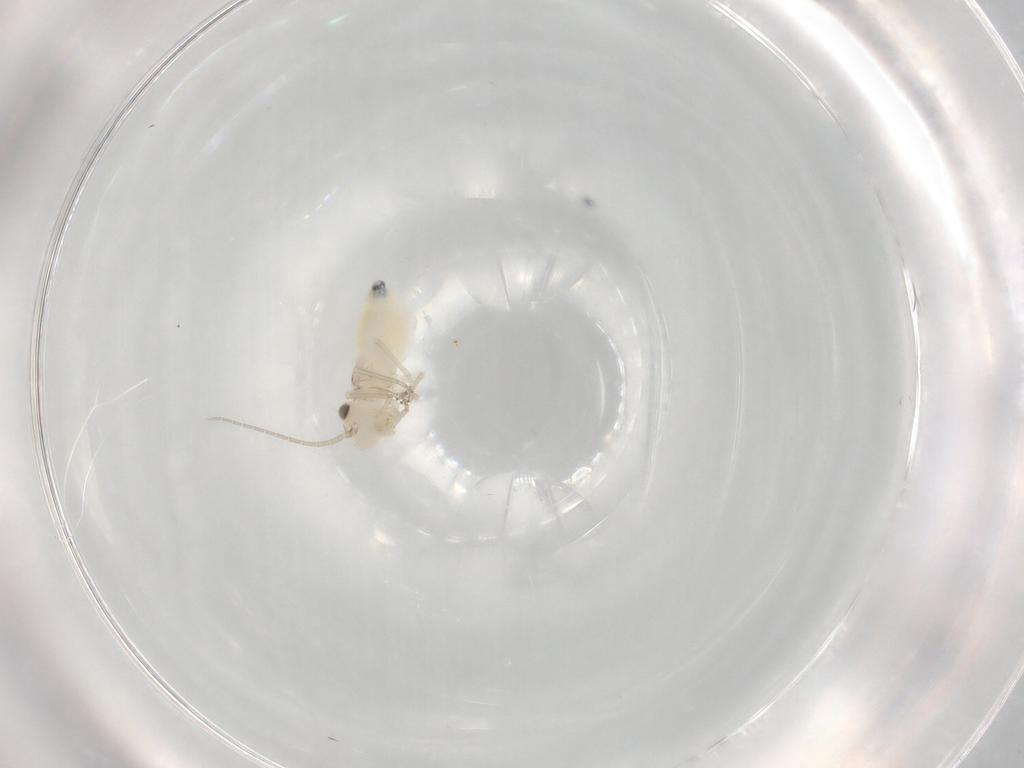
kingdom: Animalia
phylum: Arthropoda
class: Insecta
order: Psocodea
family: Caeciliusidae
